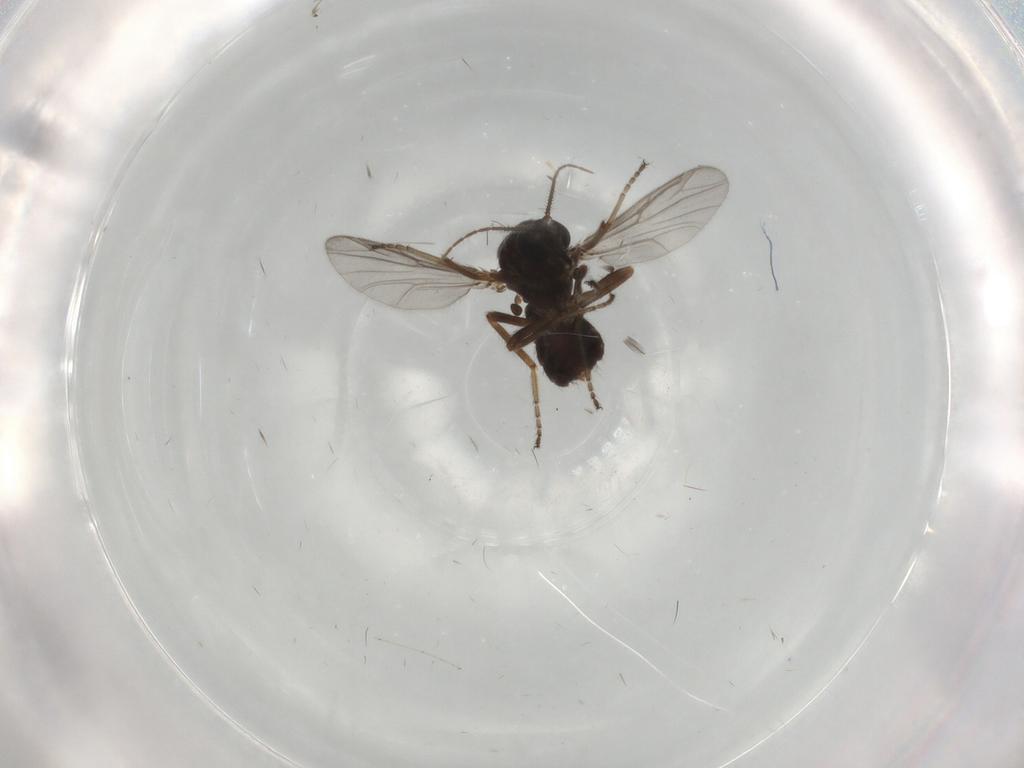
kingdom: Animalia
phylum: Arthropoda
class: Insecta
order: Diptera
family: Ceratopogonidae
